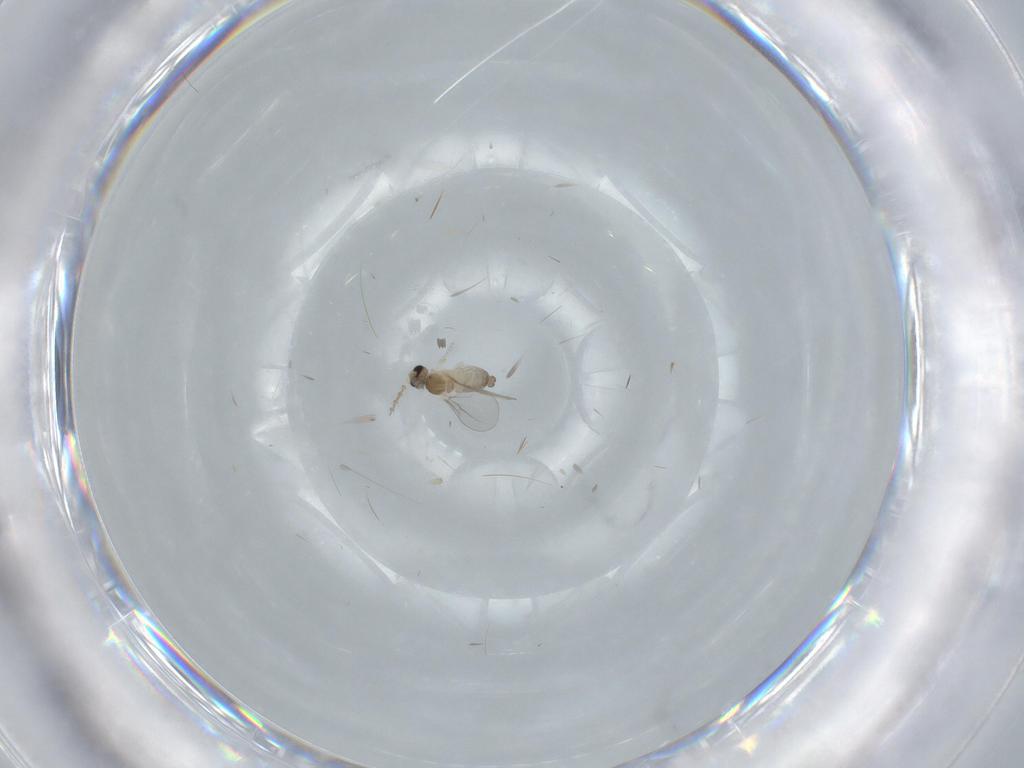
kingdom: Animalia
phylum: Arthropoda
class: Insecta
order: Diptera
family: Cecidomyiidae
